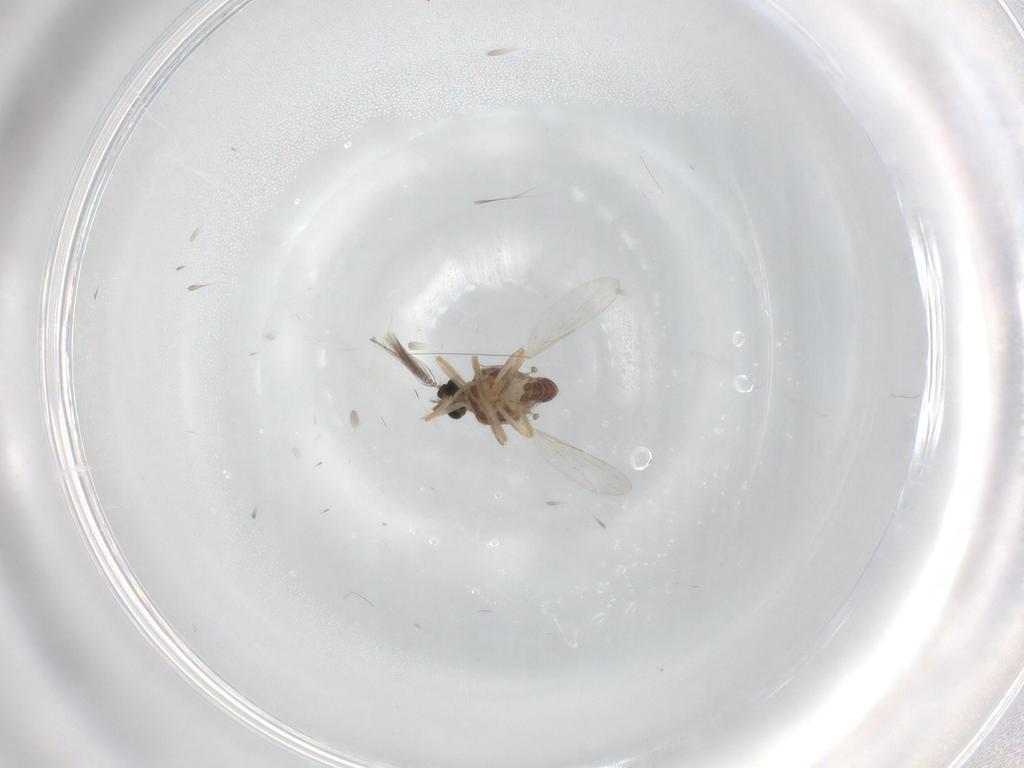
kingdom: Animalia
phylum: Arthropoda
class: Insecta
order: Diptera
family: Ceratopogonidae
